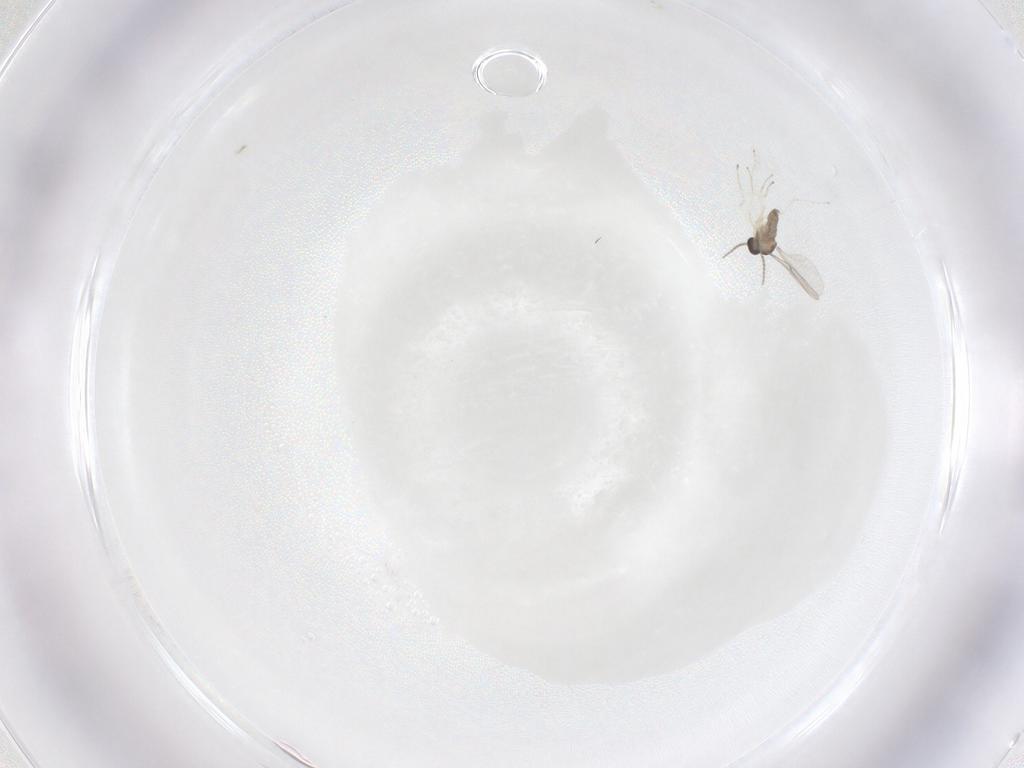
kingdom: Animalia
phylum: Arthropoda
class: Insecta
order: Diptera
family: Cecidomyiidae
